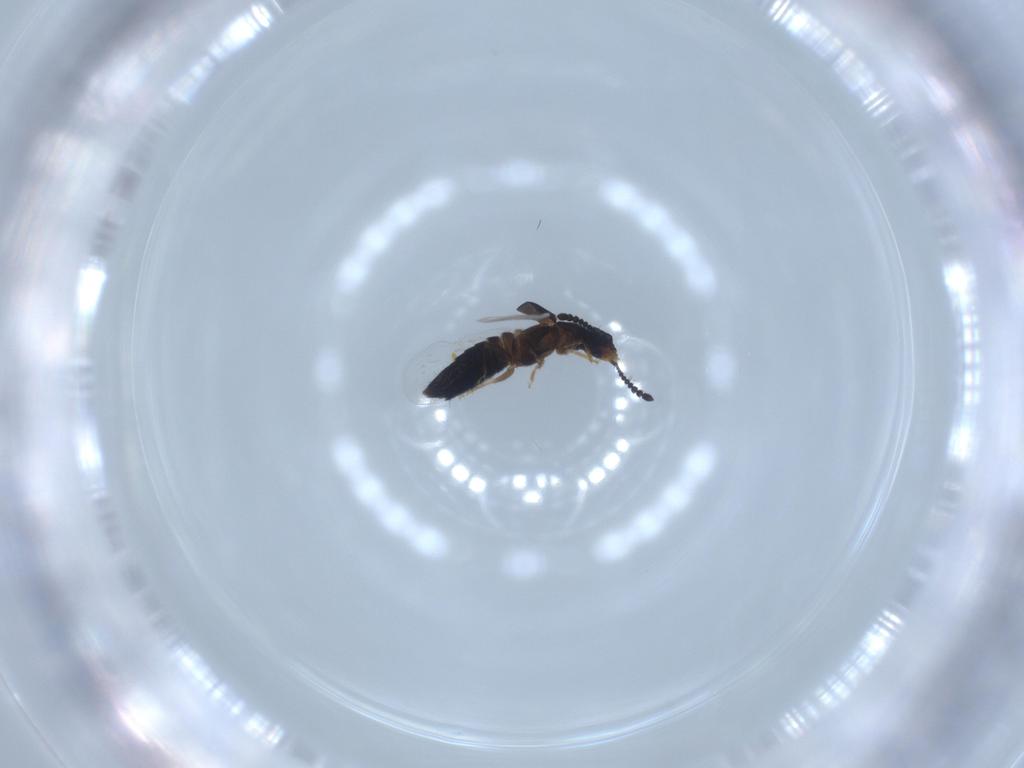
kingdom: Animalia
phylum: Arthropoda
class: Insecta
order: Coleoptera
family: Staphylinidae
